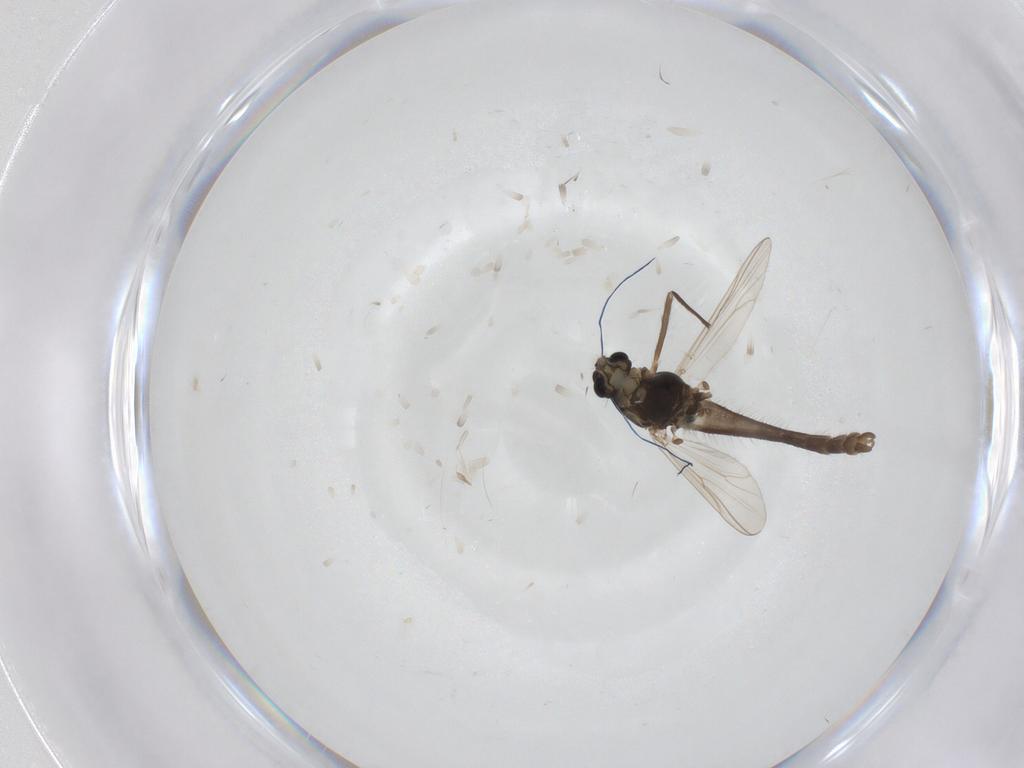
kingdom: Animalia
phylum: Arthropoda
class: Insecta
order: Diptera
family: Chironomidae
